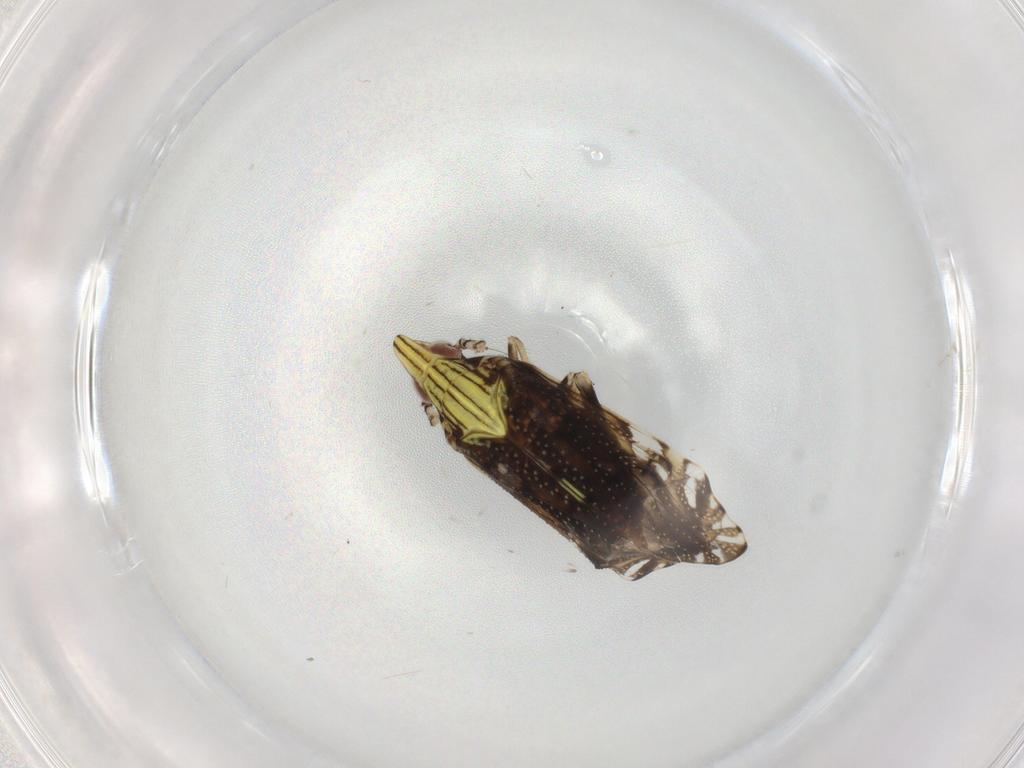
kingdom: Animalia
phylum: Arthropoda
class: Insecta
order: Hemiptera
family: Pyrrhocoridae
